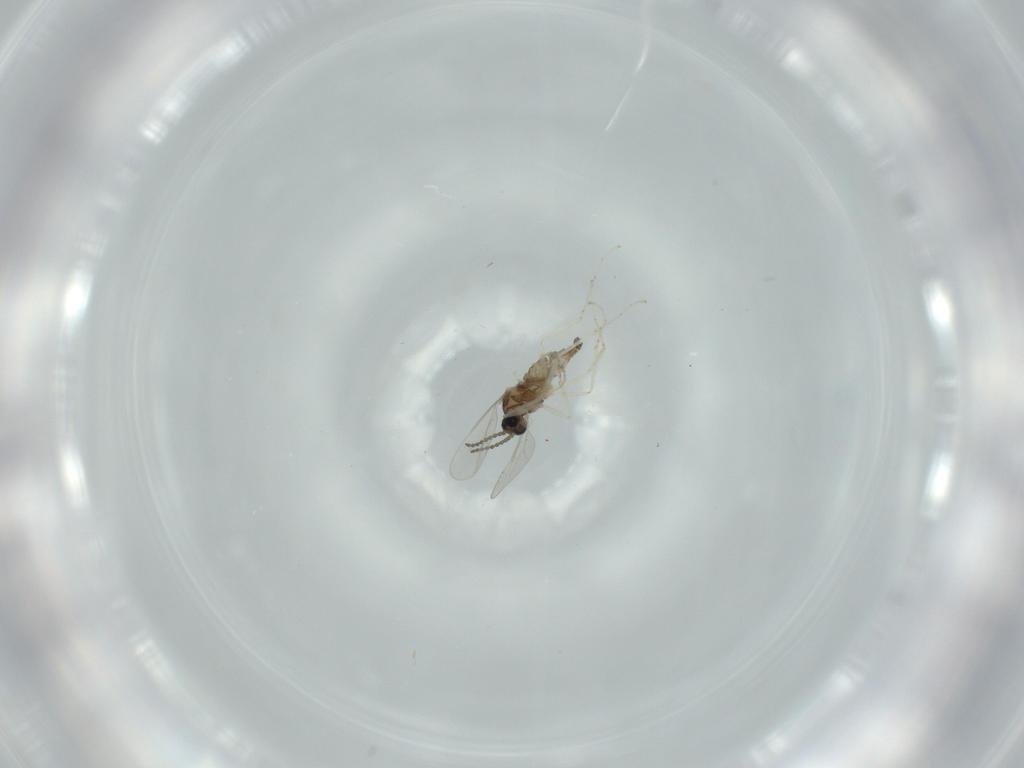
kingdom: Animalia
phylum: Arthropoda
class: Insecta
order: Diptera
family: Cecidomyiidae
